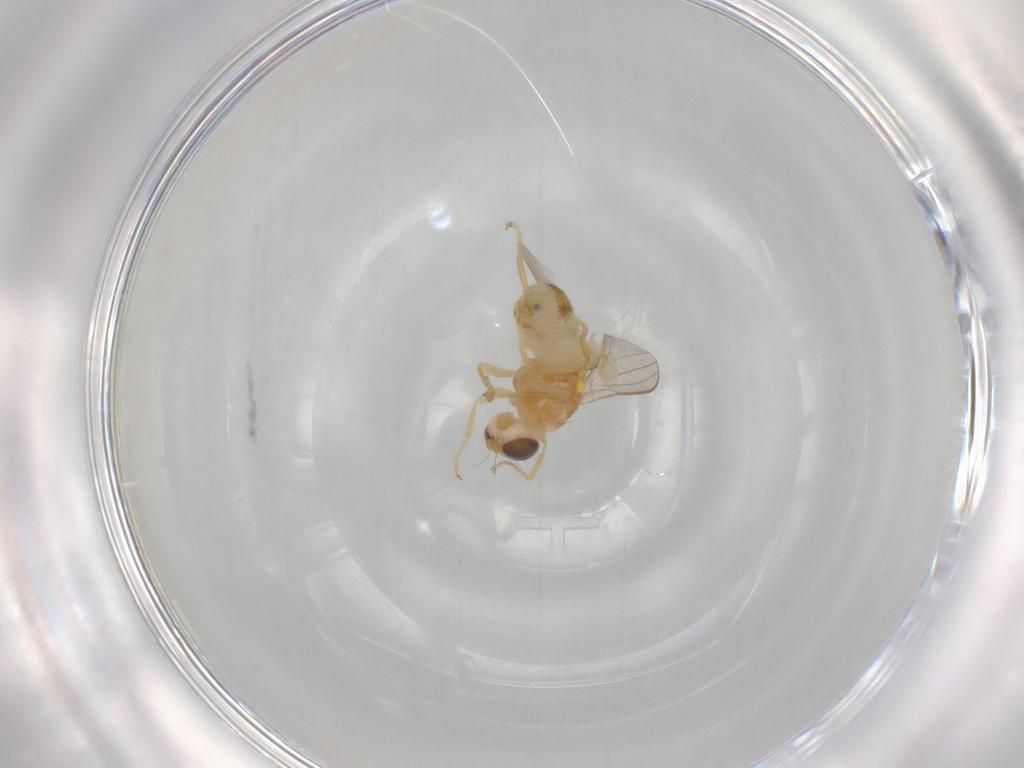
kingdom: Animalia
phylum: Arthropoda
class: Insecta
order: Diptera
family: Chyromyidae
